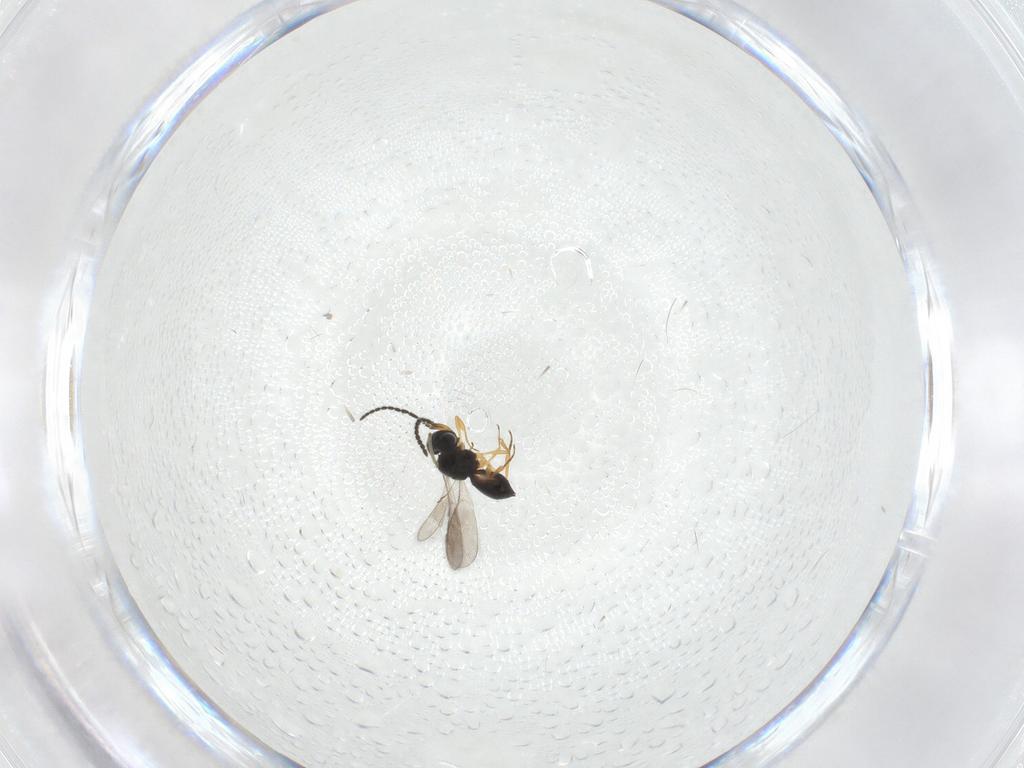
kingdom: Animalia
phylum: Arthropoda
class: Insecta
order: Hymenoptera
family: Scelionidae
